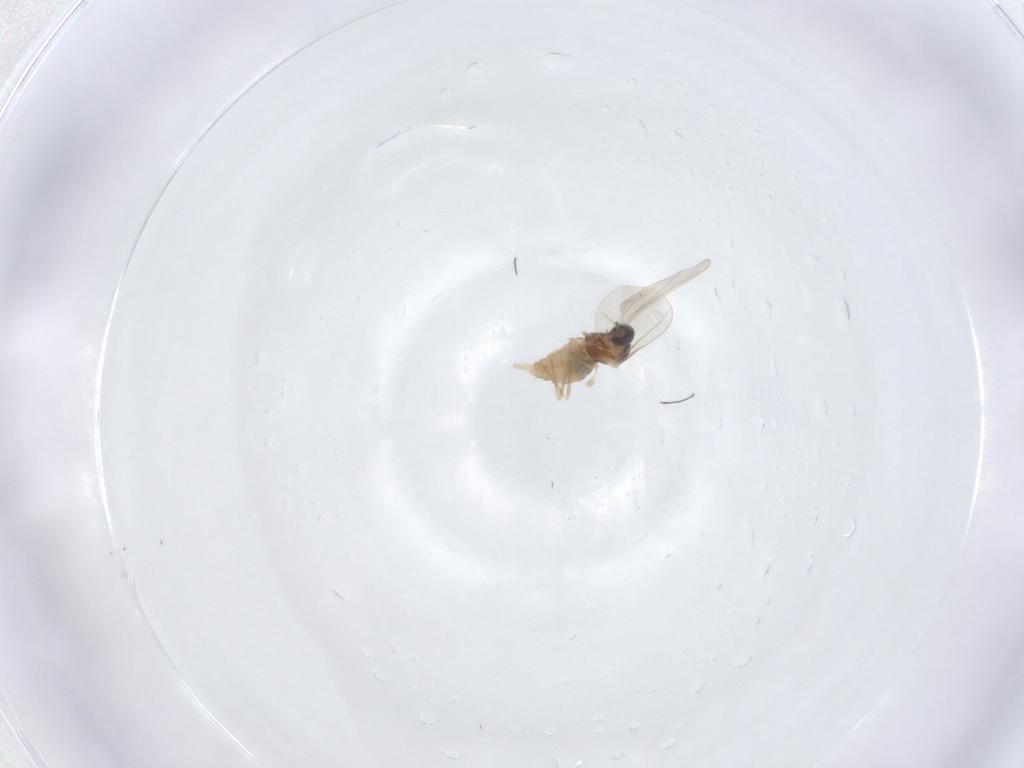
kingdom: Animalia
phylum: Arthropoda
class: Insecta
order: Diptera
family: Cecidomyiidae
